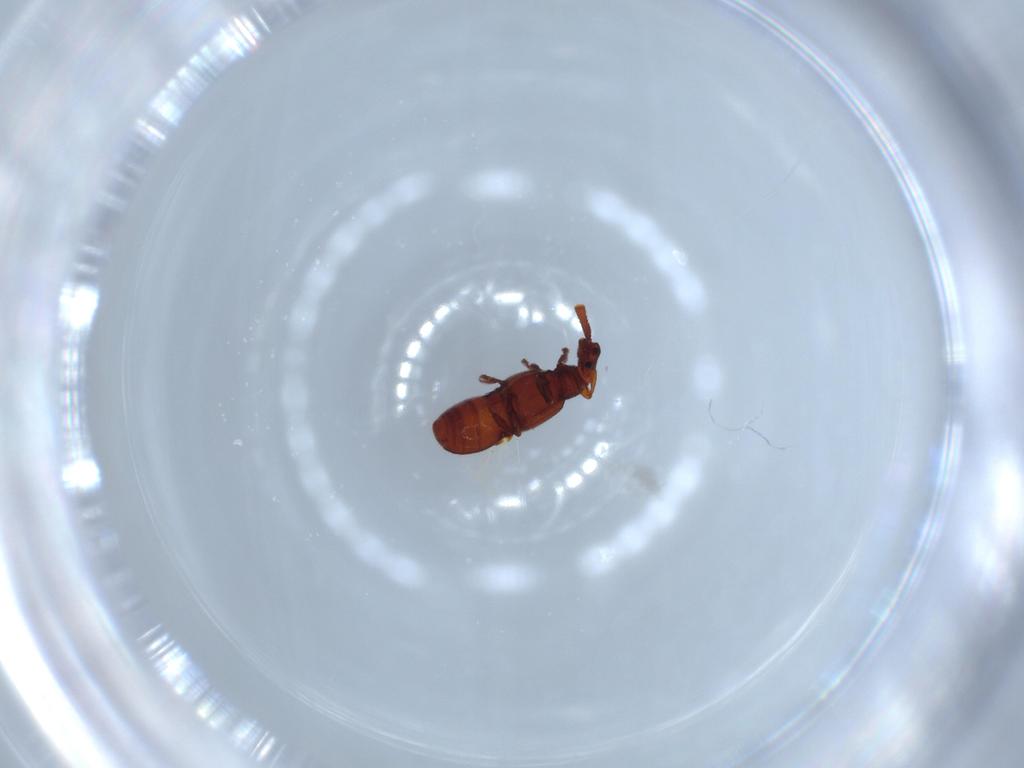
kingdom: Animalia
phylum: Arthropoda
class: Insecta
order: Coleoptera
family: Staphylinidae
